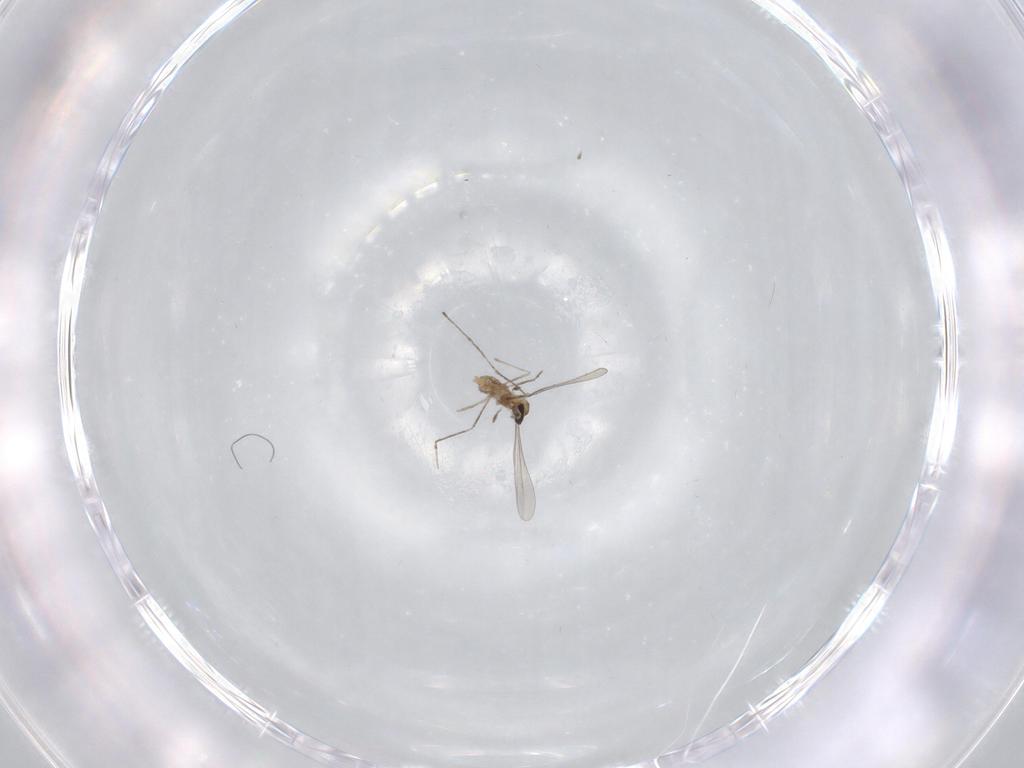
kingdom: Animalia
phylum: Arthropoda
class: Insecta
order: Diptera
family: Cecidomyiidae
